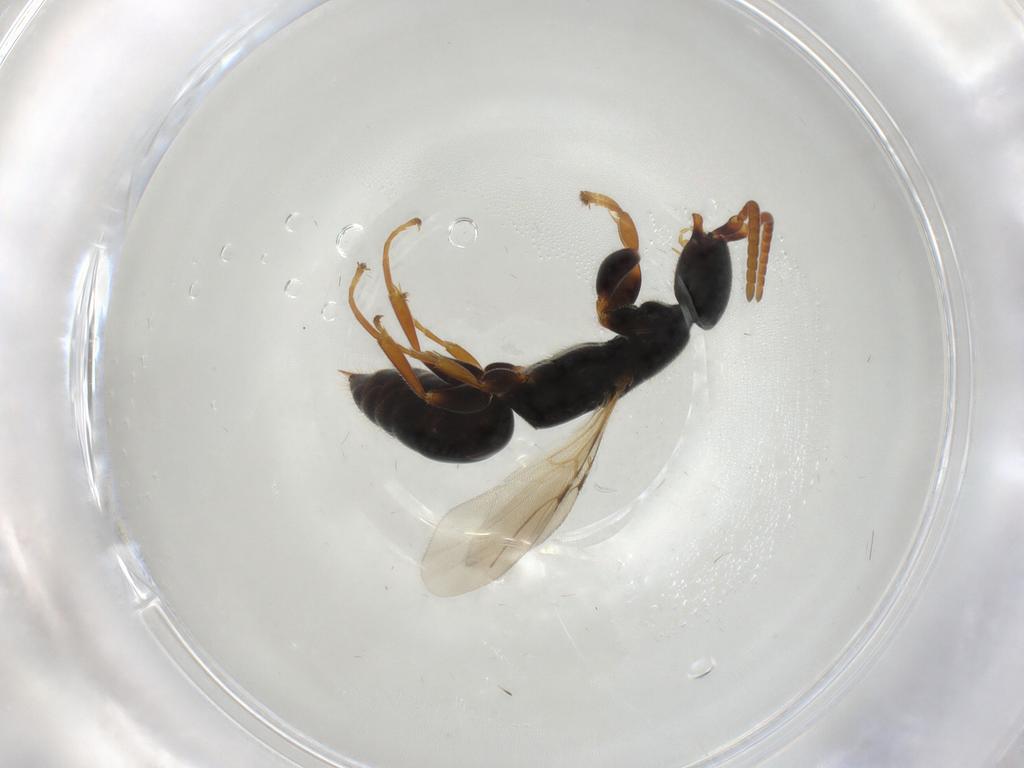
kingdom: Animalia
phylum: Arthropoda
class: Insecta
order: Hymenoptera
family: Bethylidae
